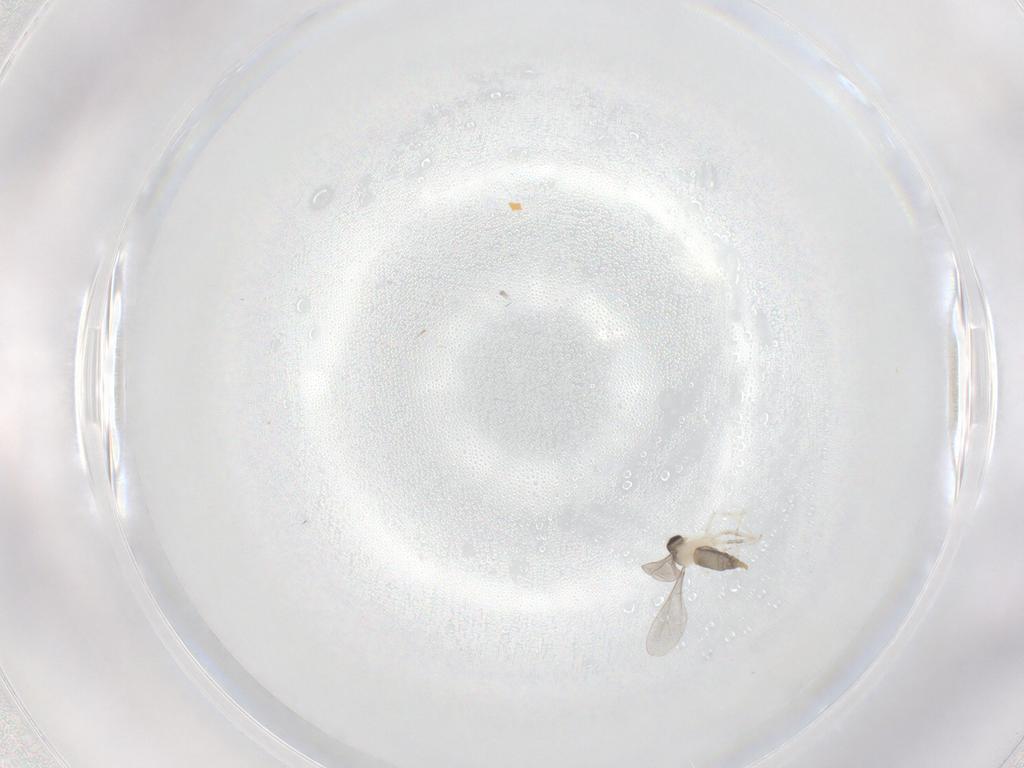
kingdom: Animalia
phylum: Arthropoda
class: Insecta
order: Diptera
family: Cecidomyiidae
